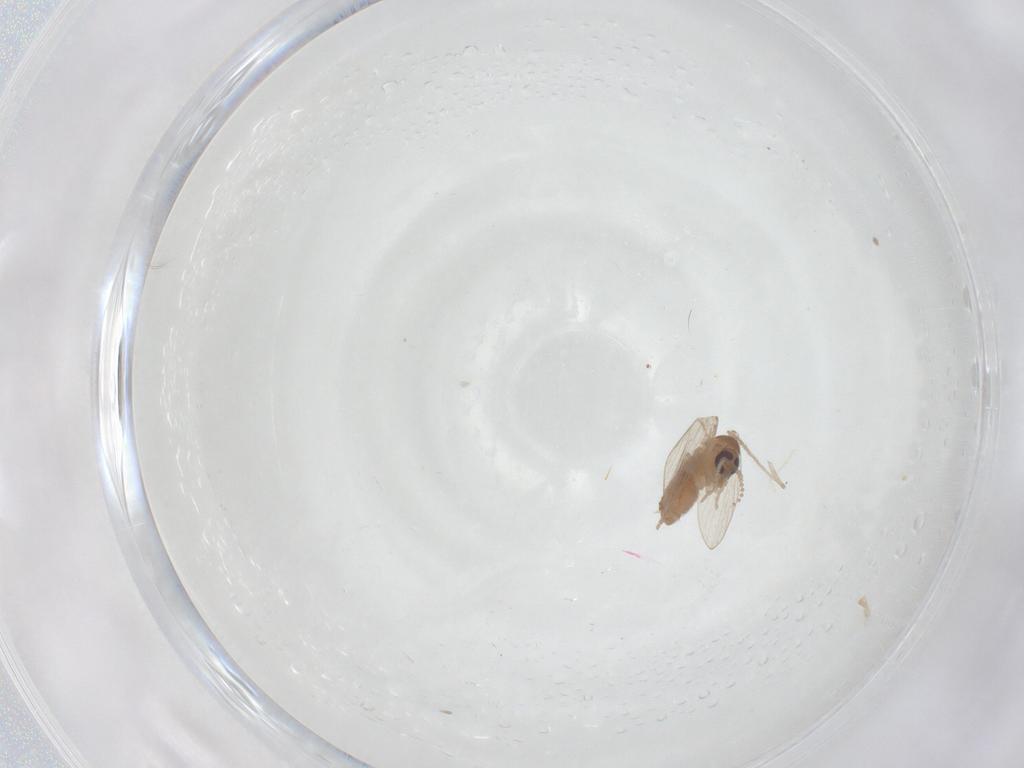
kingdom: Animalia
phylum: Arthropoda
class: Insecta
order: Diptera
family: Psychodidae
